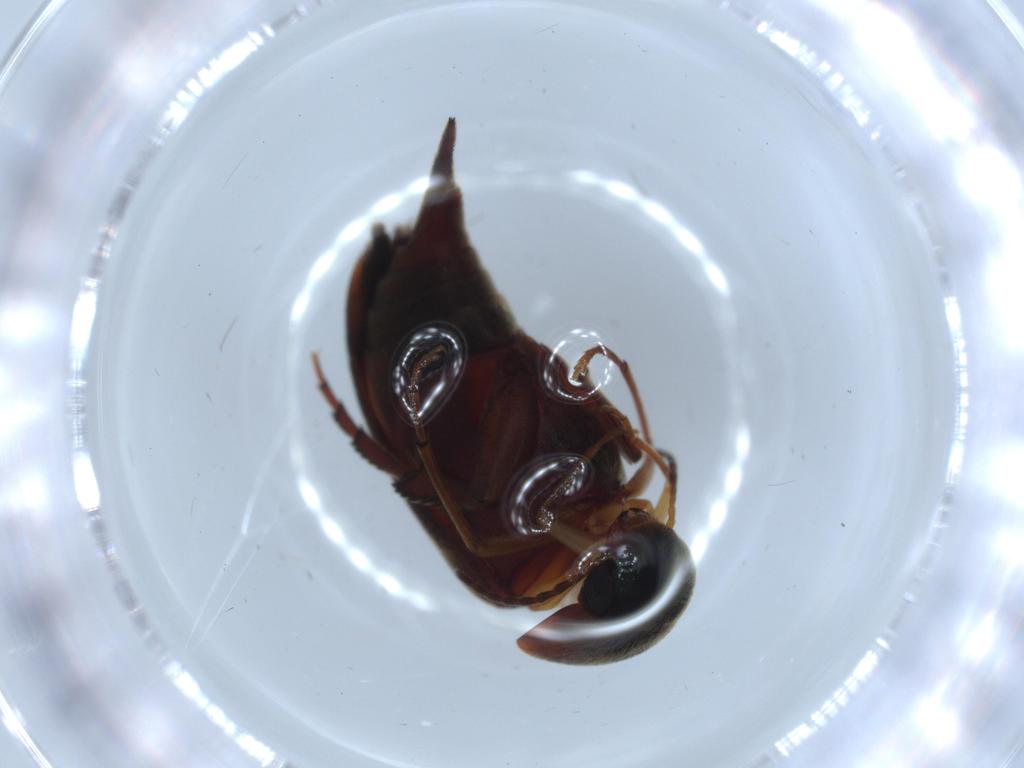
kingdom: Animalia
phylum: Arthropoda
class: Insecta
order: Coleoptera
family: Mordellidae
